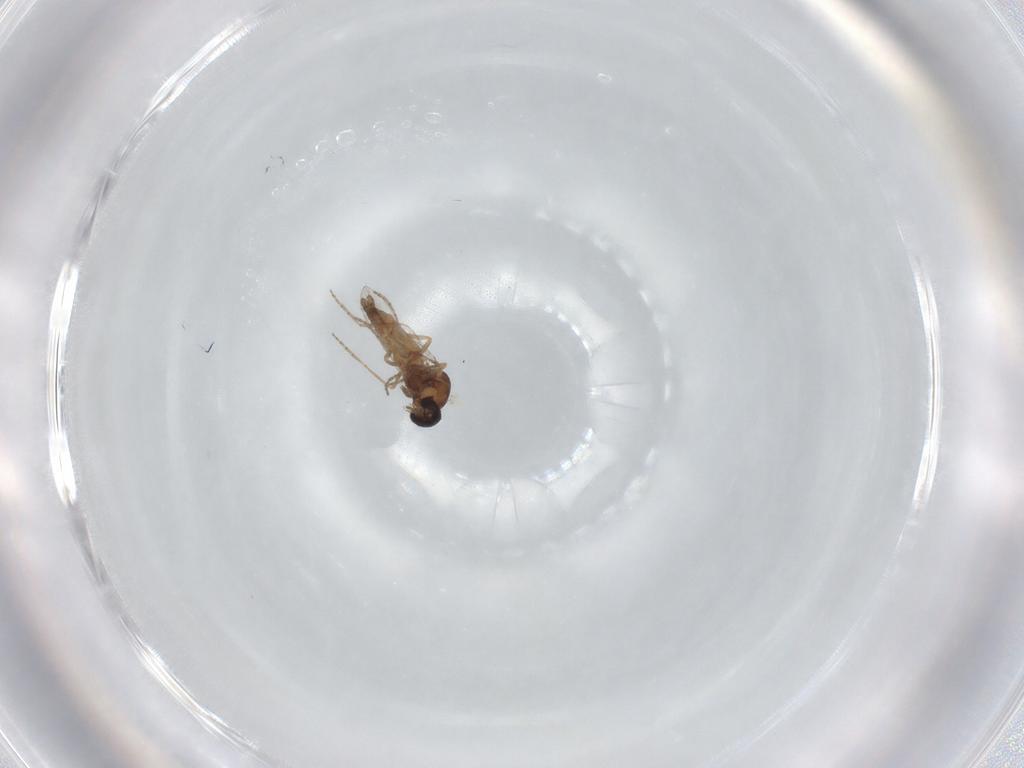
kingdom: Animalia
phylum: Arthropoda
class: Insecta
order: Diptera
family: Ceratopogonidae
